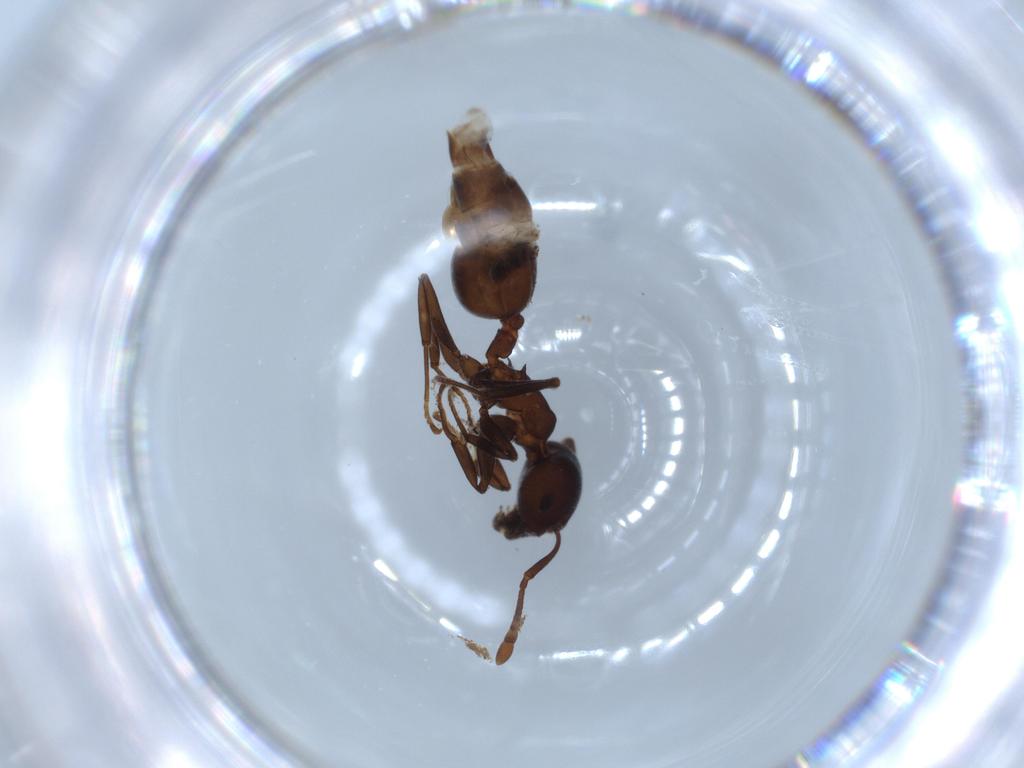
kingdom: Animalia
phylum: Arthropoda
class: Insecta
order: Hymenoptera
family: Formicidae
